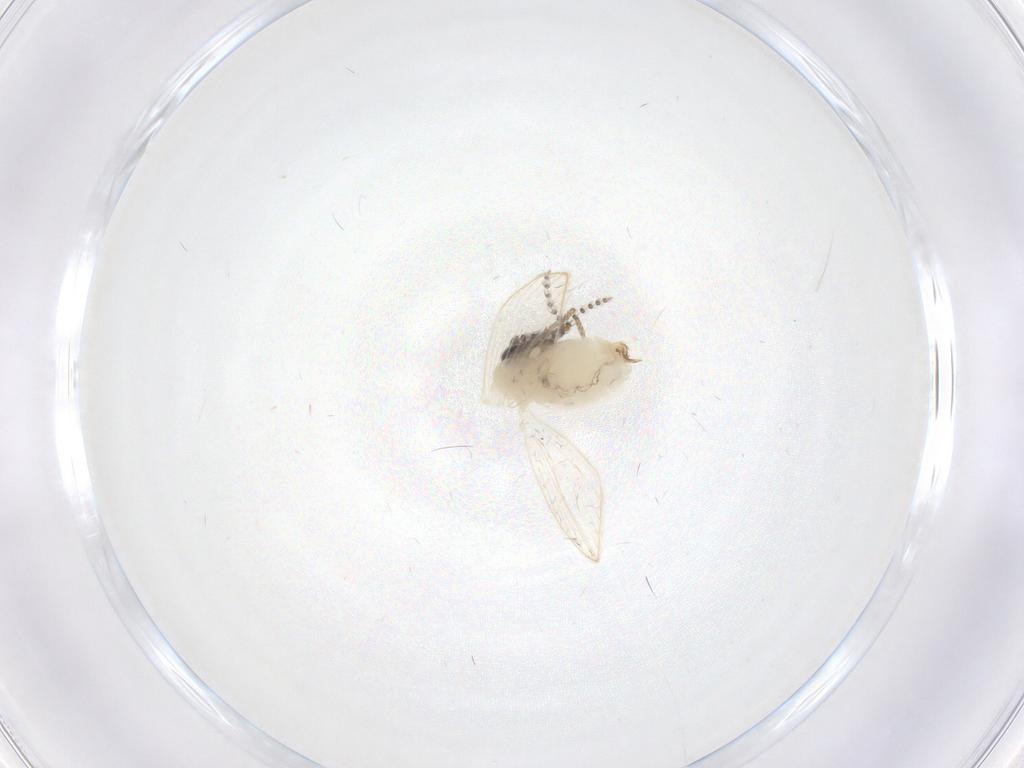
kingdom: Animalia
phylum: Arthropoda
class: Insecta
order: Diptera
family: Psychodidae
